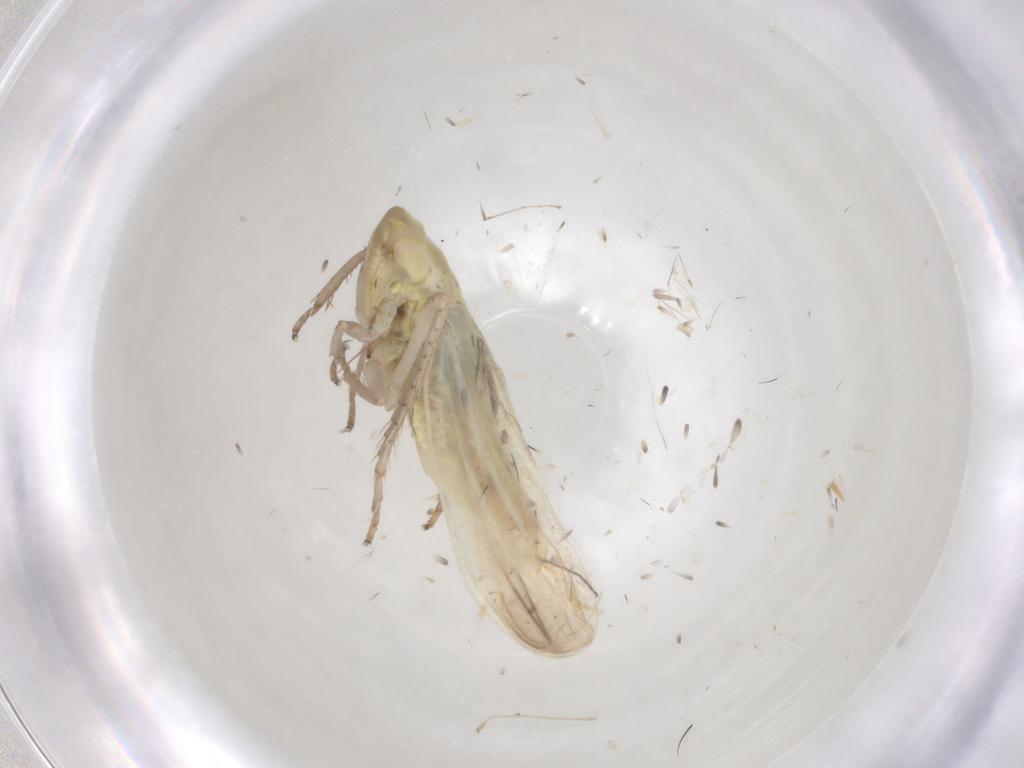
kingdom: Animalia
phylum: Arthropoda
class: Insecta
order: Hemiptera
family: Cicadellidae
